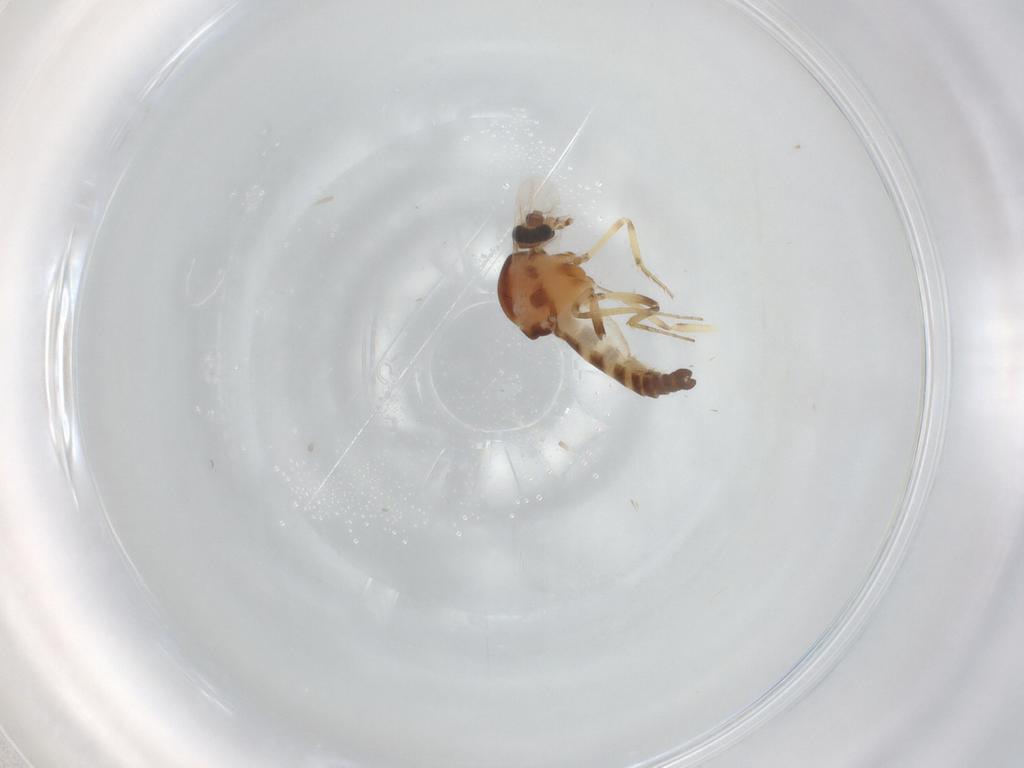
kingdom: Animalia
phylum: Arthropoda
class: Insecta
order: Diptera
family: Ceratopogonidae
